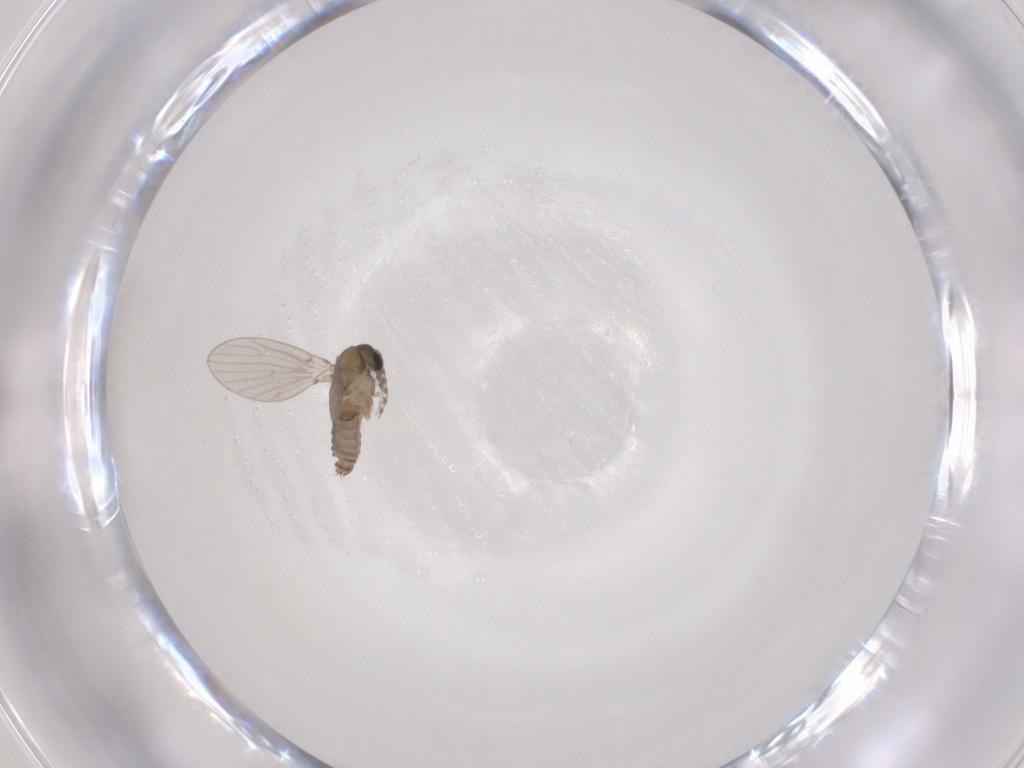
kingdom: Animalia
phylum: Arthropoda
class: Insecta
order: Diptera
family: Psychodidae
